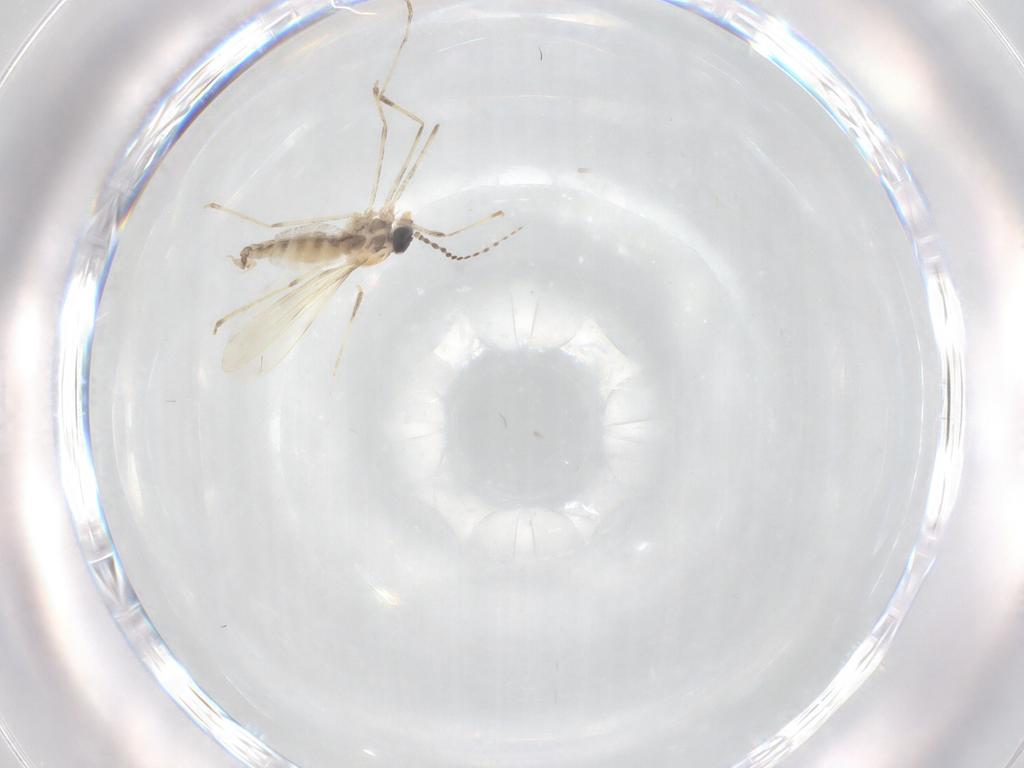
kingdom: Animalia
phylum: Arthropoda
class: Insecta
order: Diptera
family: Cecidomyiidae
